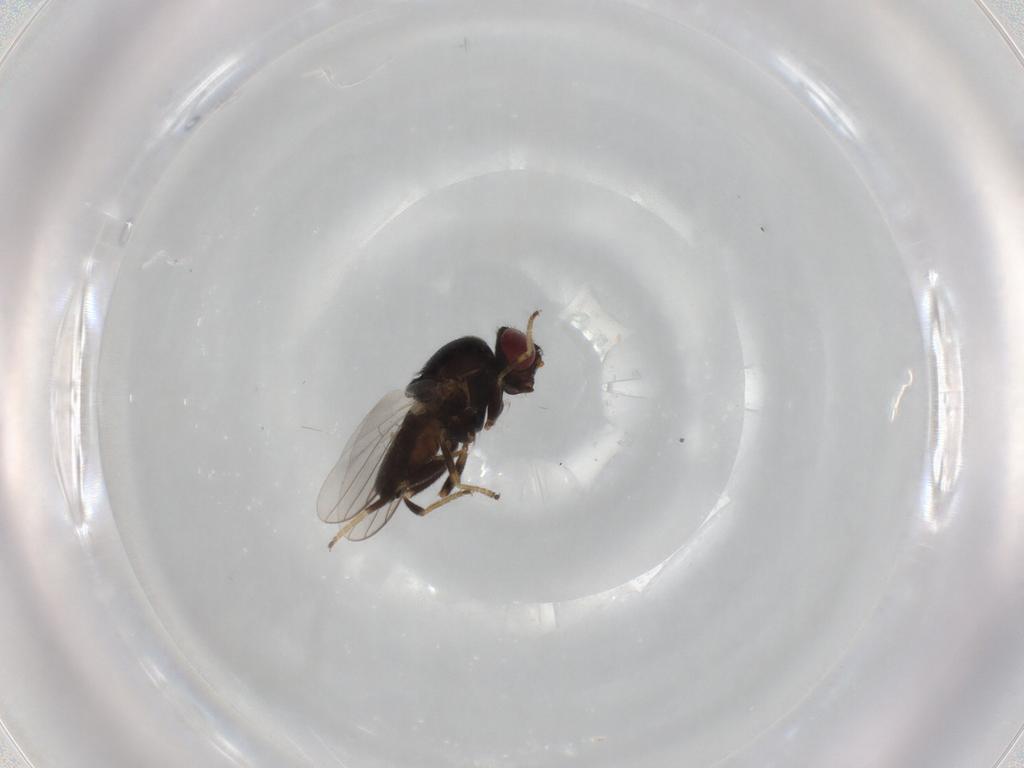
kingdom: Animalia
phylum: Arthropoda
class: Insecta
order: Diptera
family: Chloropidae
